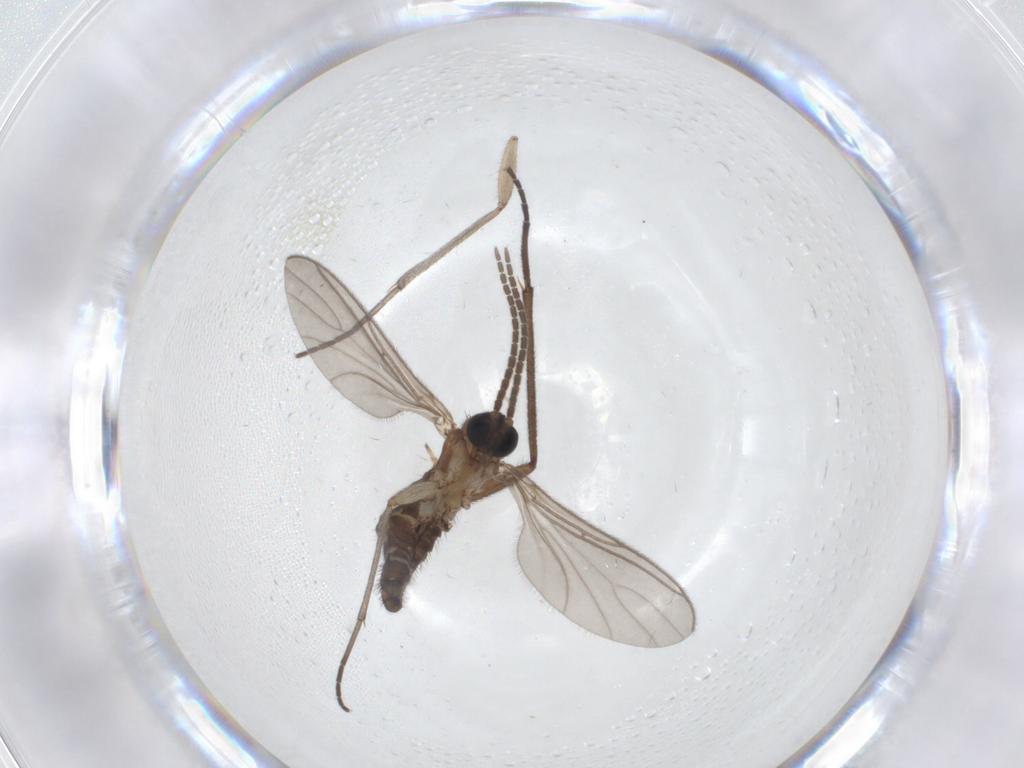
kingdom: Animalia
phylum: Arthropoda
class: Insecta
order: Diptera
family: Sciaridae
